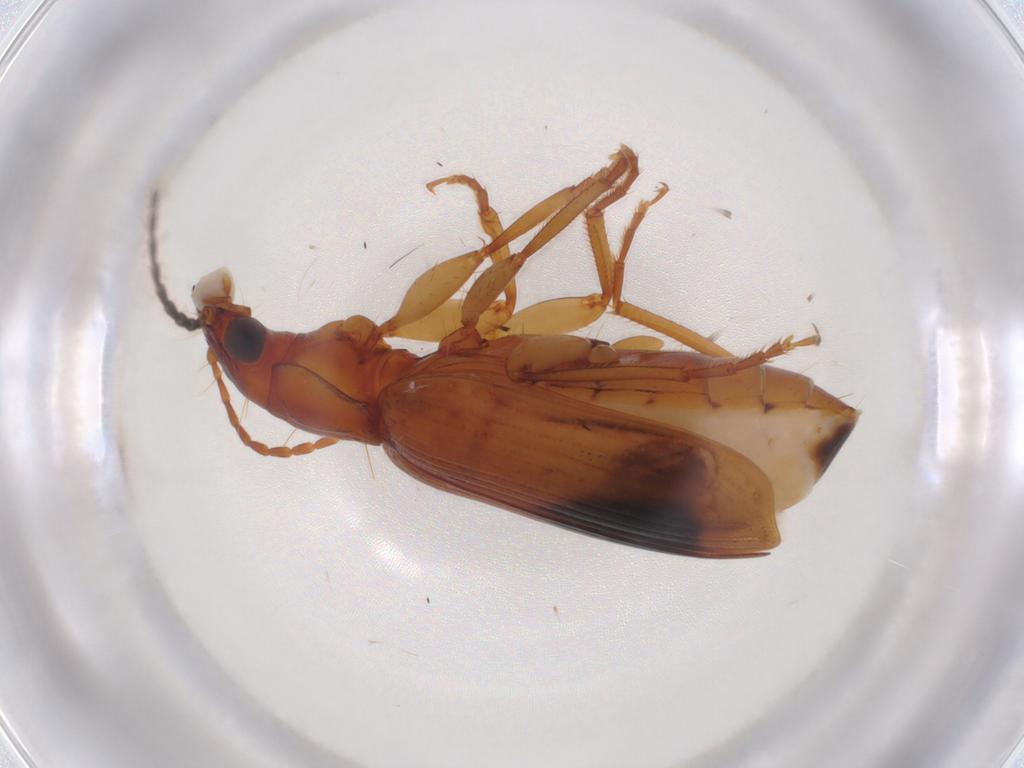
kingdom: Animalia
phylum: Arthropoda
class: Insecta
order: Coleoptera
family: Carabidae
